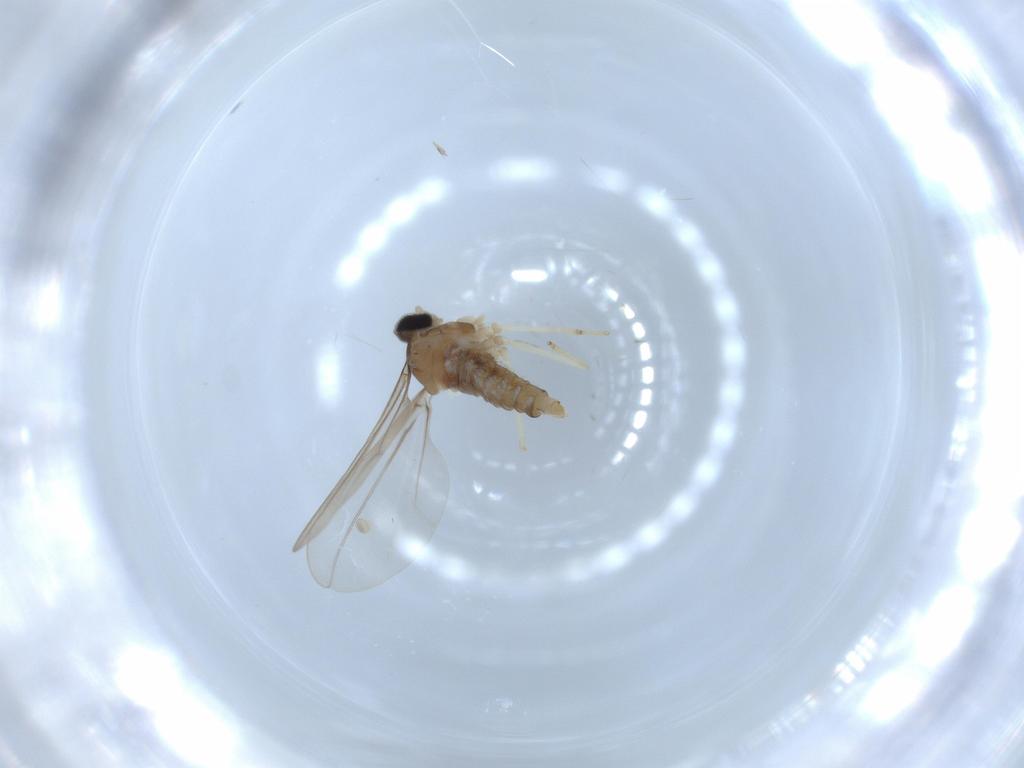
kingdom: Animalia
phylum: Arthropoda
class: Insecta
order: Diptera
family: Cecidomyiidae
